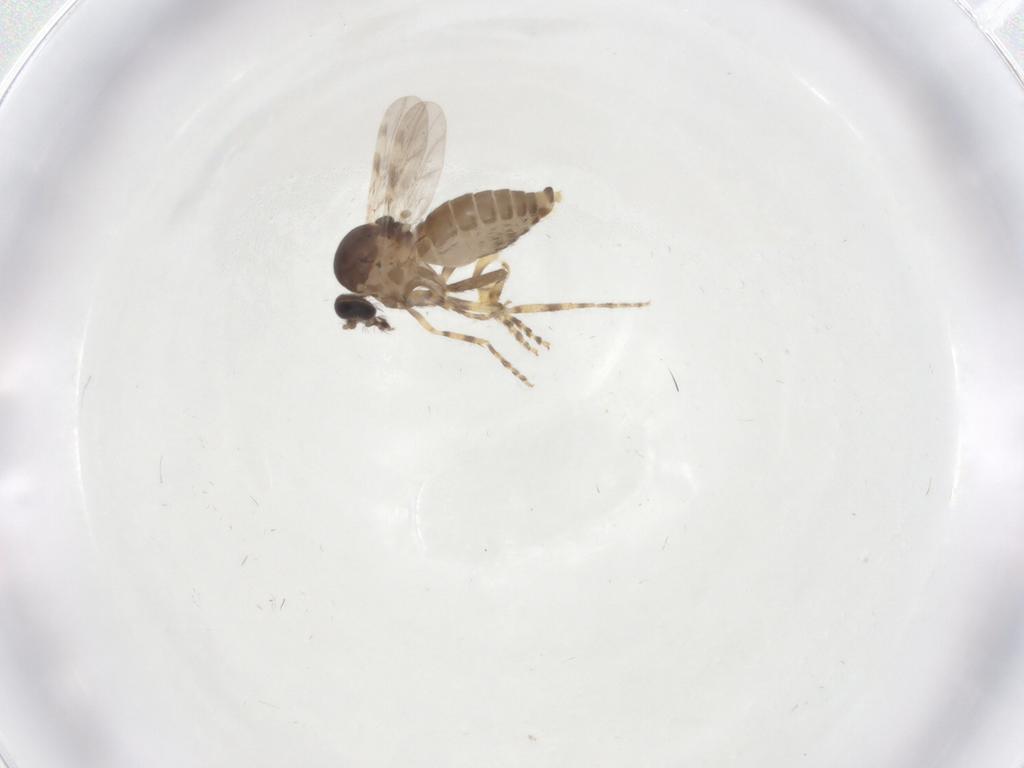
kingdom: Animalia
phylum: Arthropoda
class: Insecta
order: Diptera
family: Ceratopogonidae
